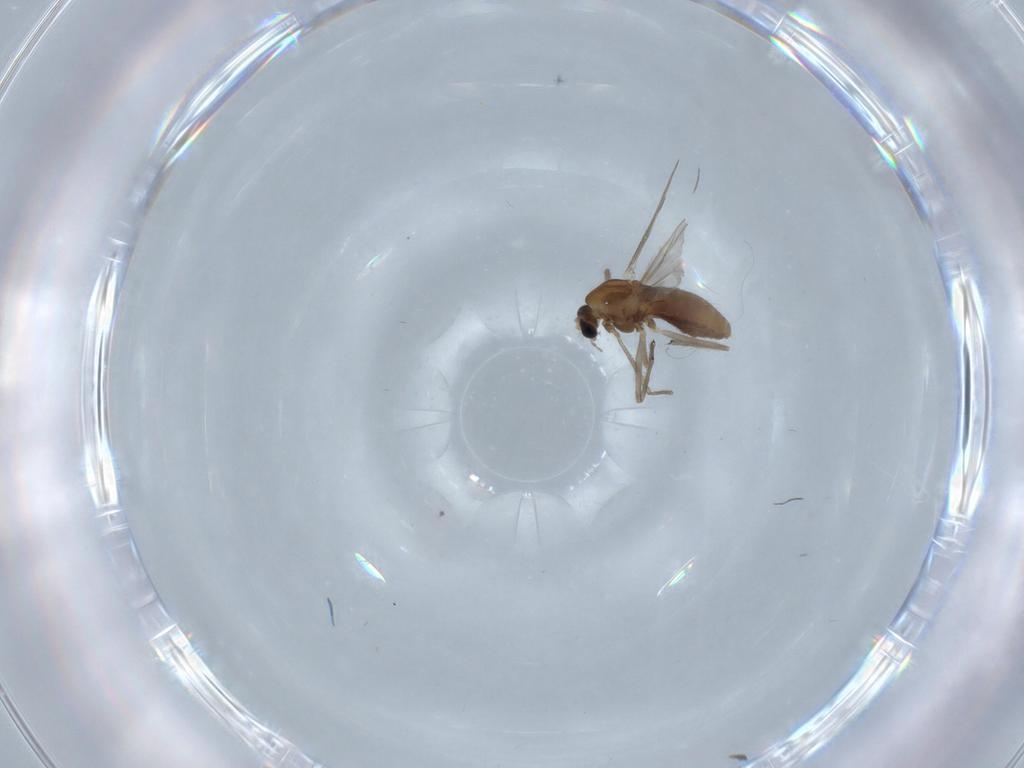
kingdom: Animalia
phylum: Arthropoda
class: Insecta
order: Diptera
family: Chironomidae
